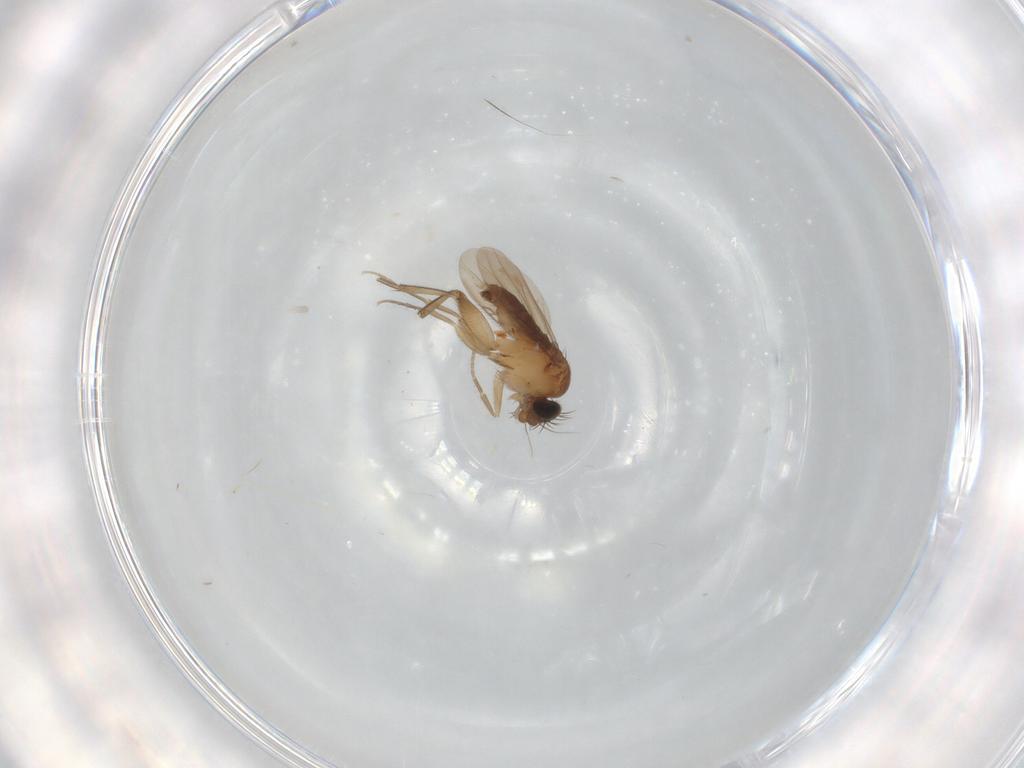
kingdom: Animalia
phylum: Arthropoda
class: Insecta
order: Diptera
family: Phoridae
